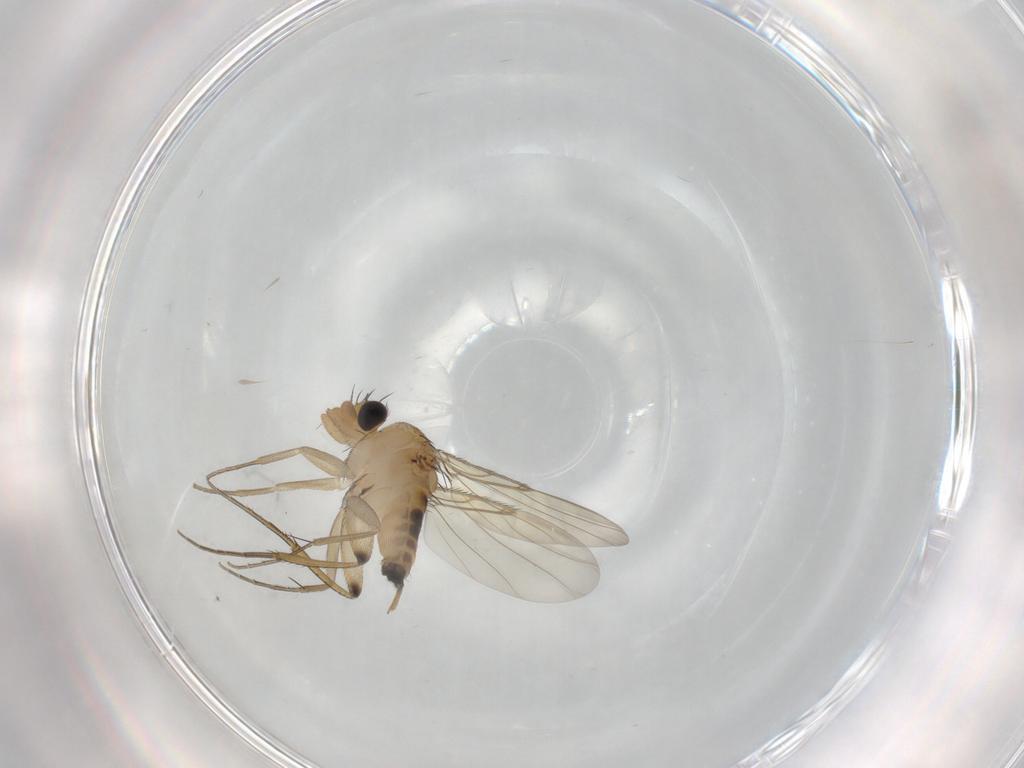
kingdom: Animalia
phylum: Arthropoda
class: Insecta
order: Diptera
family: Phoridae
